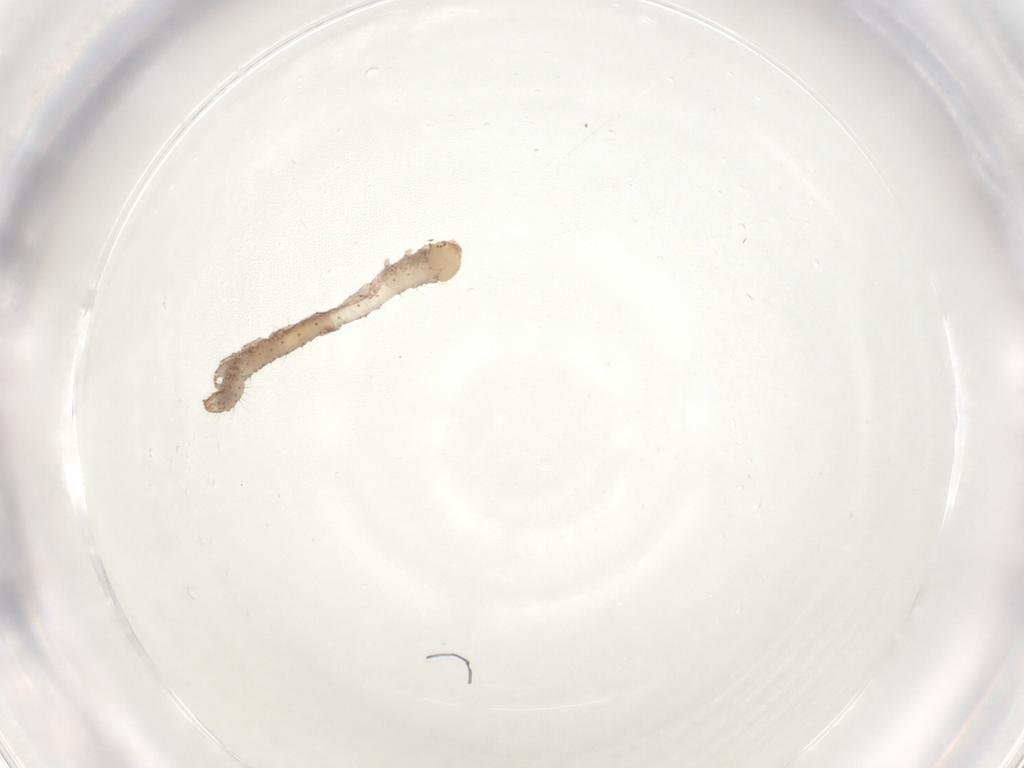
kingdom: Animalia
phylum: Arthropoda
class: Insecta
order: Hemiptera
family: Tingidae
